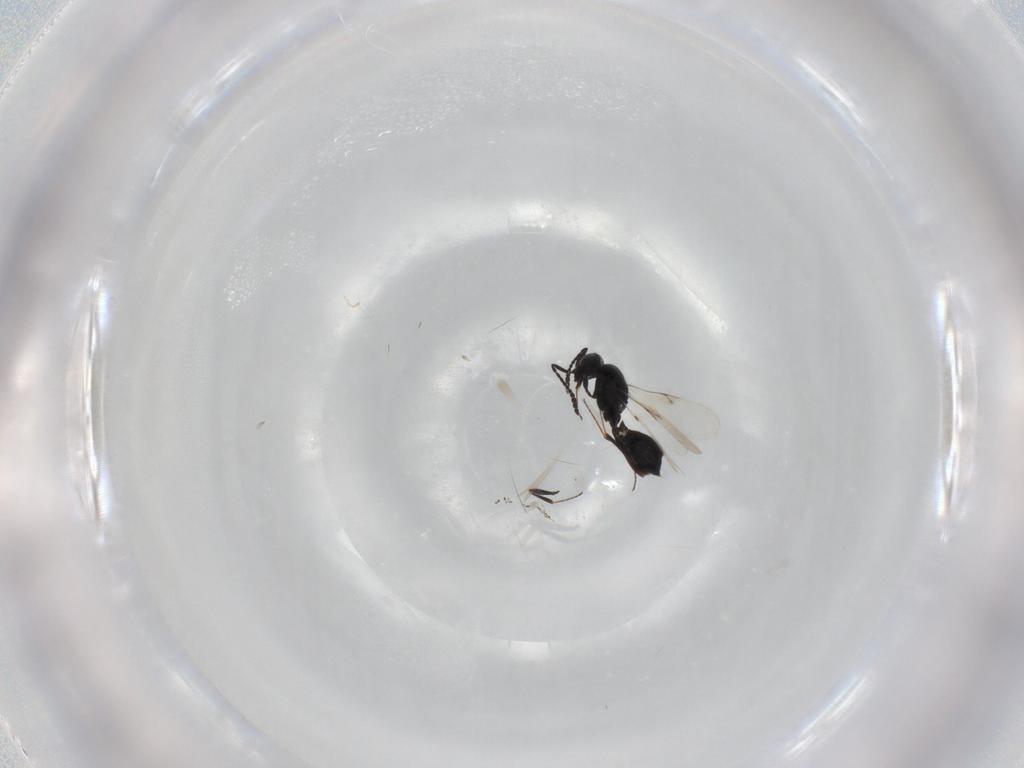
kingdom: Animalia
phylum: Arthropoda
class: Insecta
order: Hymenoptera
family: Scelionidae
